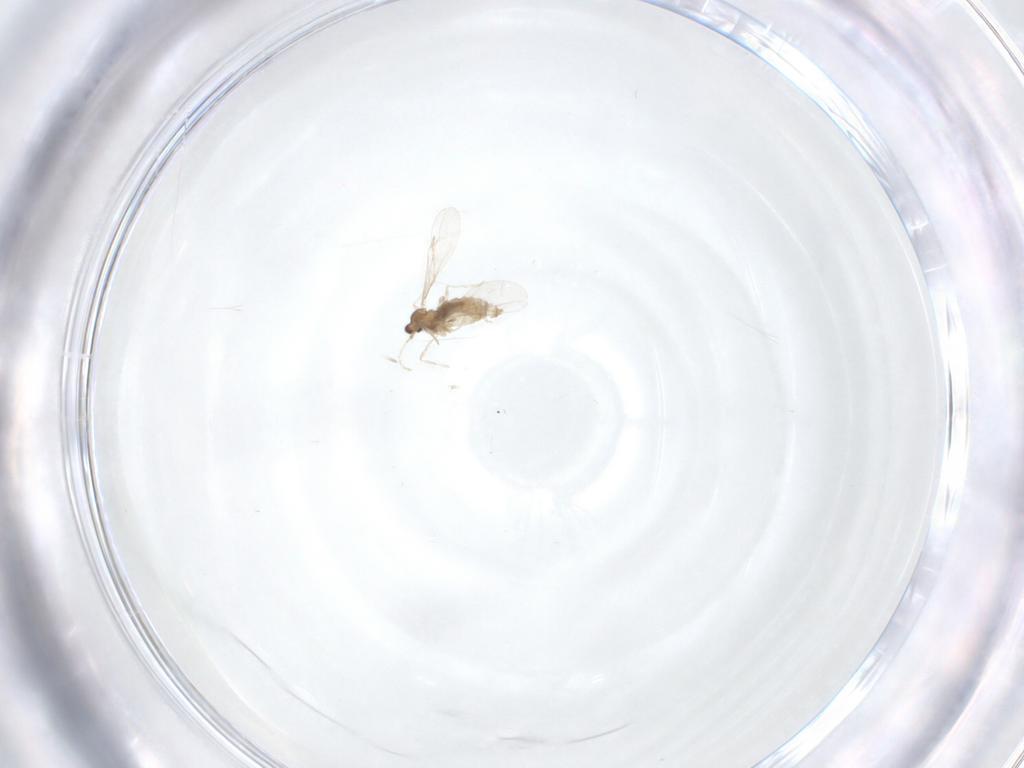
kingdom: Animalia
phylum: Arthropoda
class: Insecta
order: Diptera
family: Cecidomyiidae
